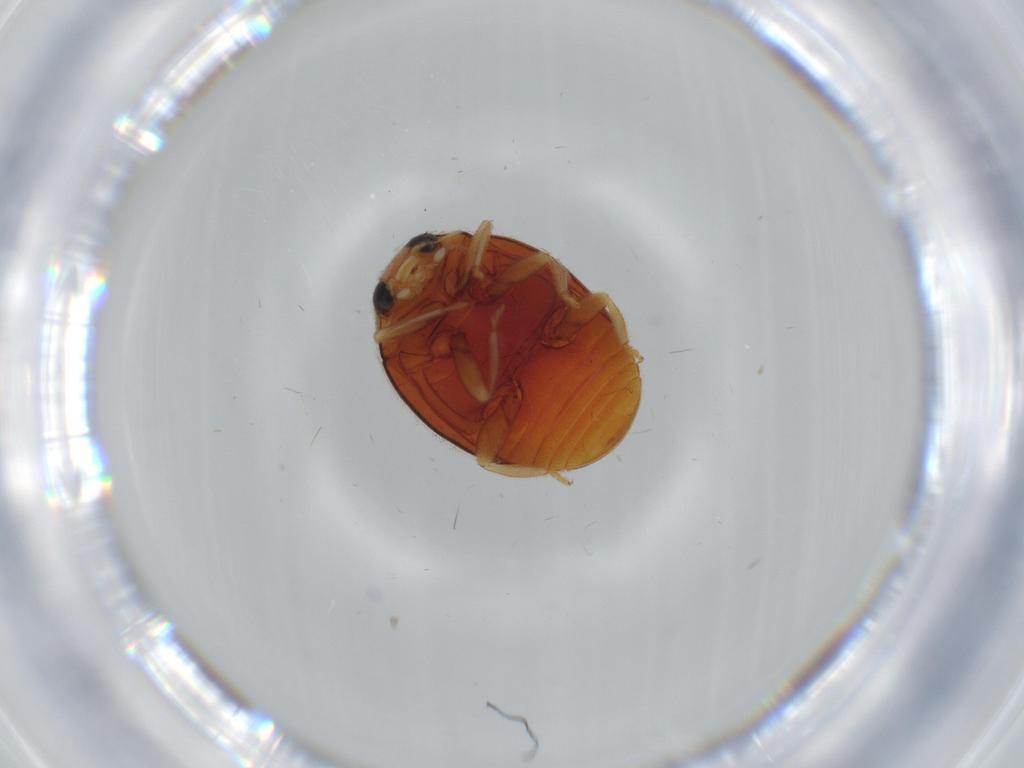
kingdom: Animalia
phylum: Arthropoda
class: Insecta
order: Coleoptera
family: Coccinellidae
